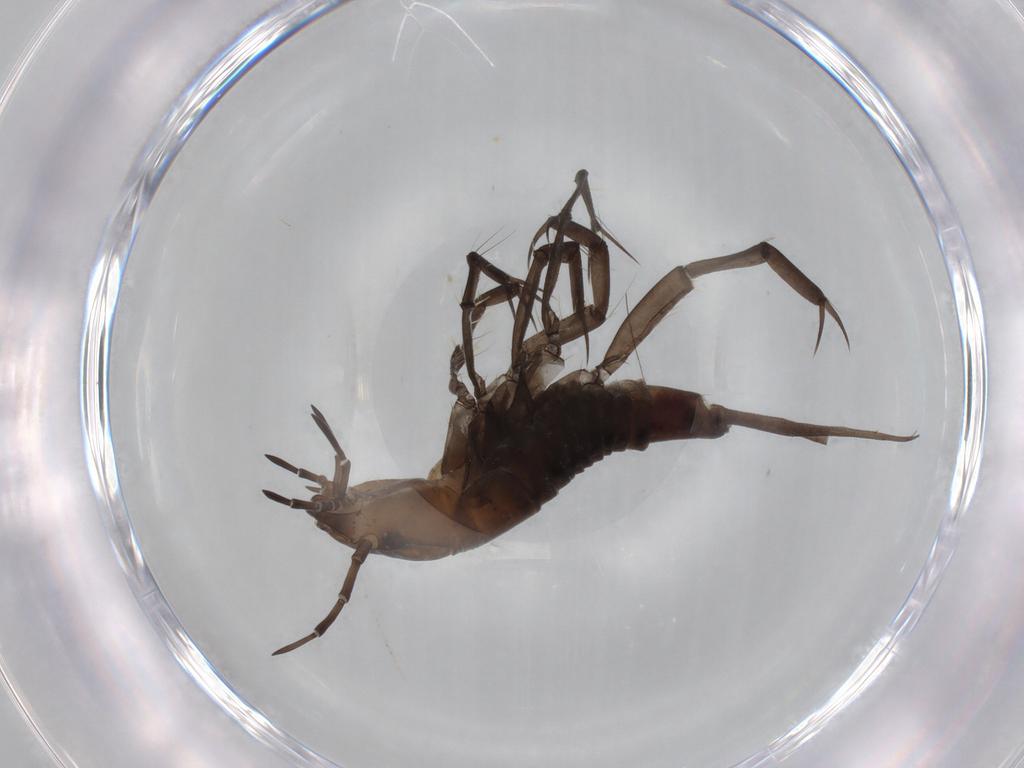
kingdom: Animalia
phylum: Arthropoda
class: Insecta
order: Coleoptera
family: Dytiscidae
